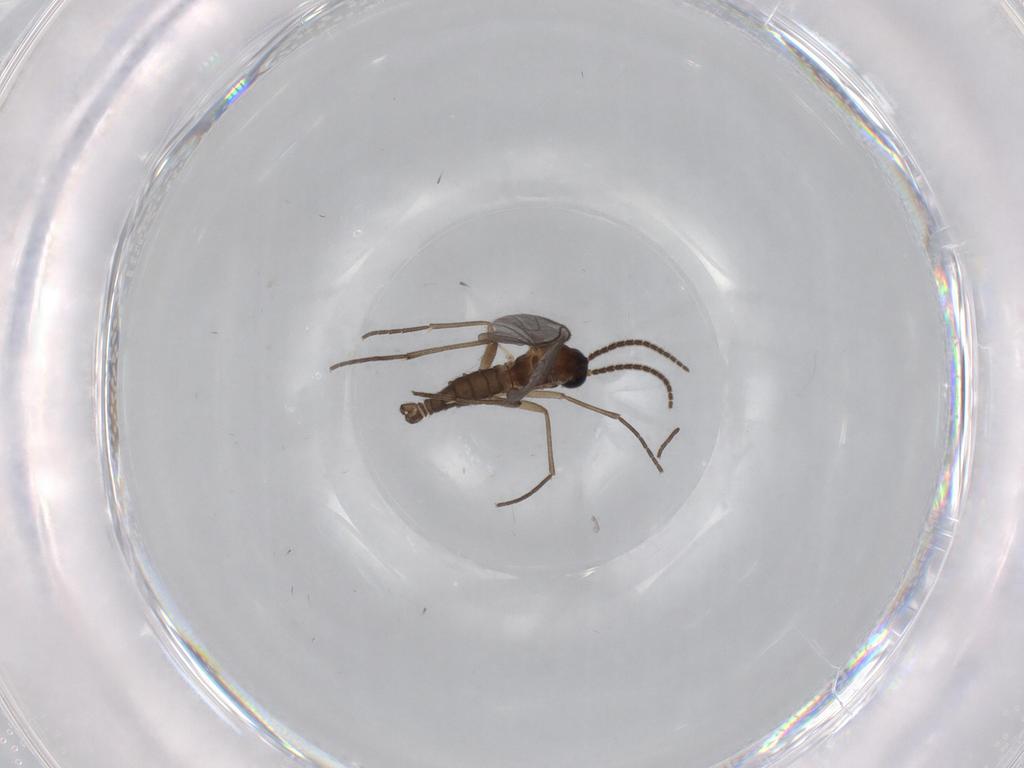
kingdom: Animalia
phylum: Arthropoda
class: Insecta
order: Diptera
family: Sciaridae
